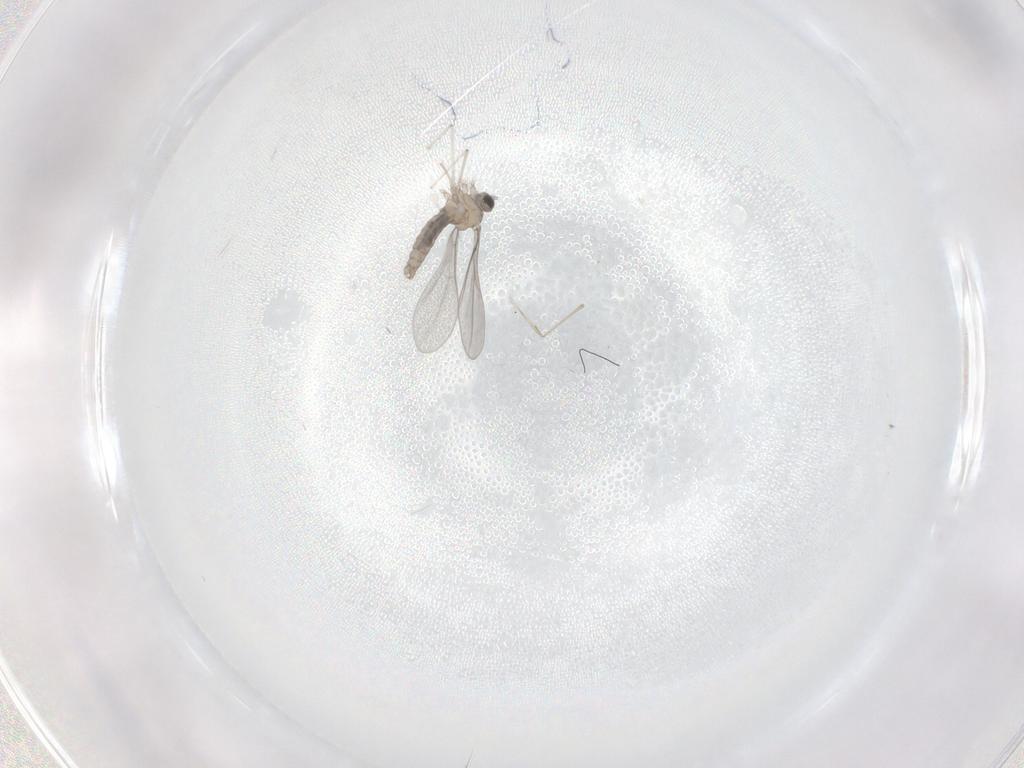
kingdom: Animalia
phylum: Arthropoda
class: Insecta
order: Diptera
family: Cecidomyiidae
